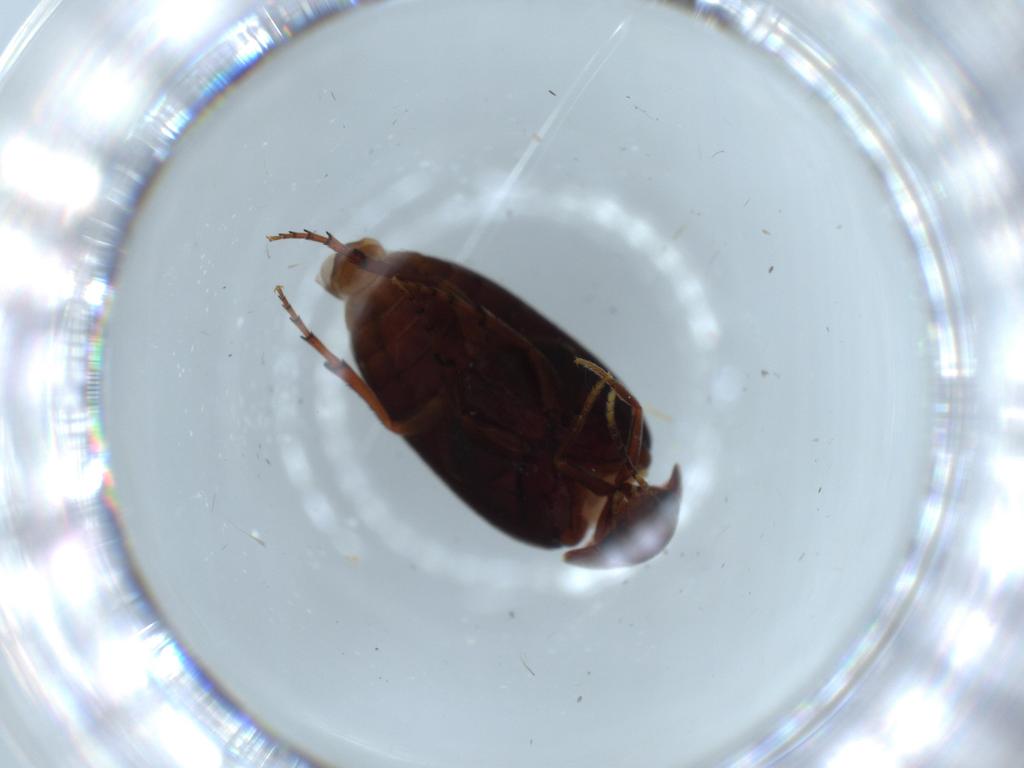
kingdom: Animalia
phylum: Arthropoda
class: Insecta
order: Coleoptera
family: Eucinetidae
